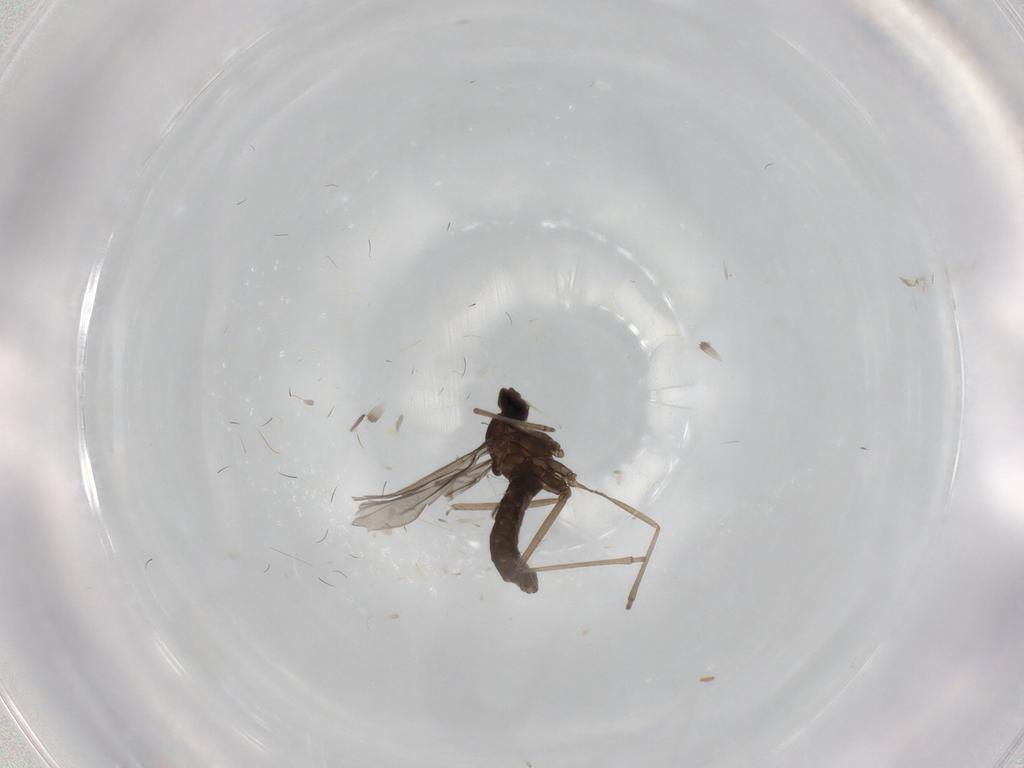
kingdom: Animalia
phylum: Arthropoda
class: Insecta
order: Diptera
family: Cecidomyiidae
